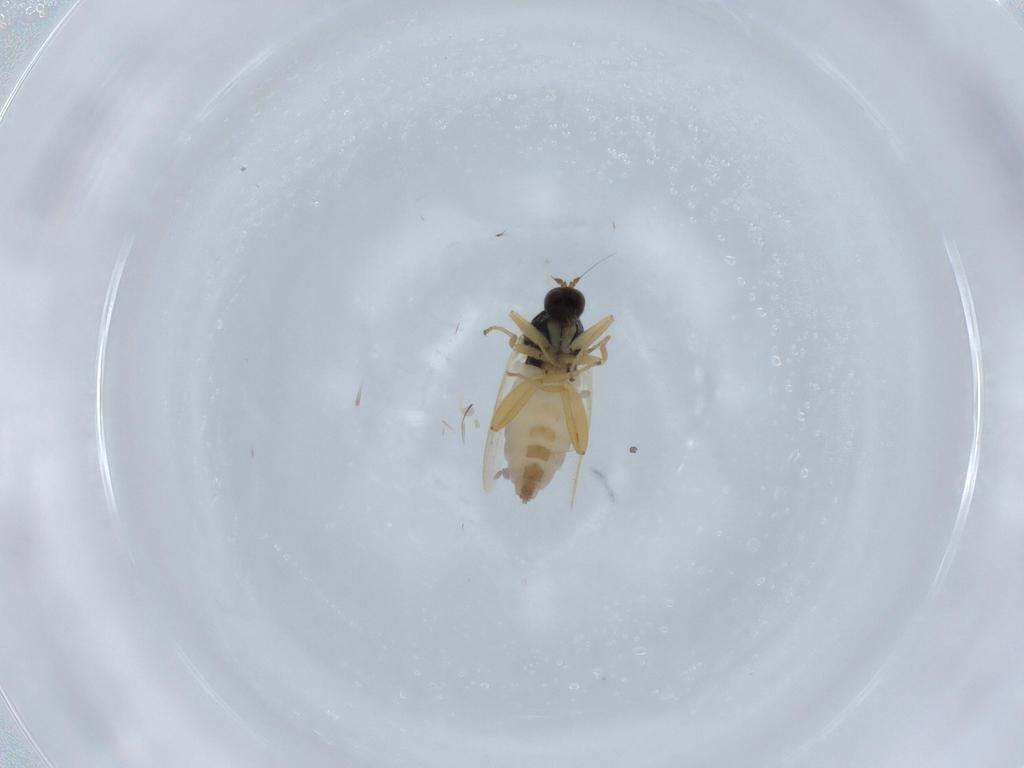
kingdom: Animalia
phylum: Arthropoda
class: Insecta
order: Diptera
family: Hybotidae
